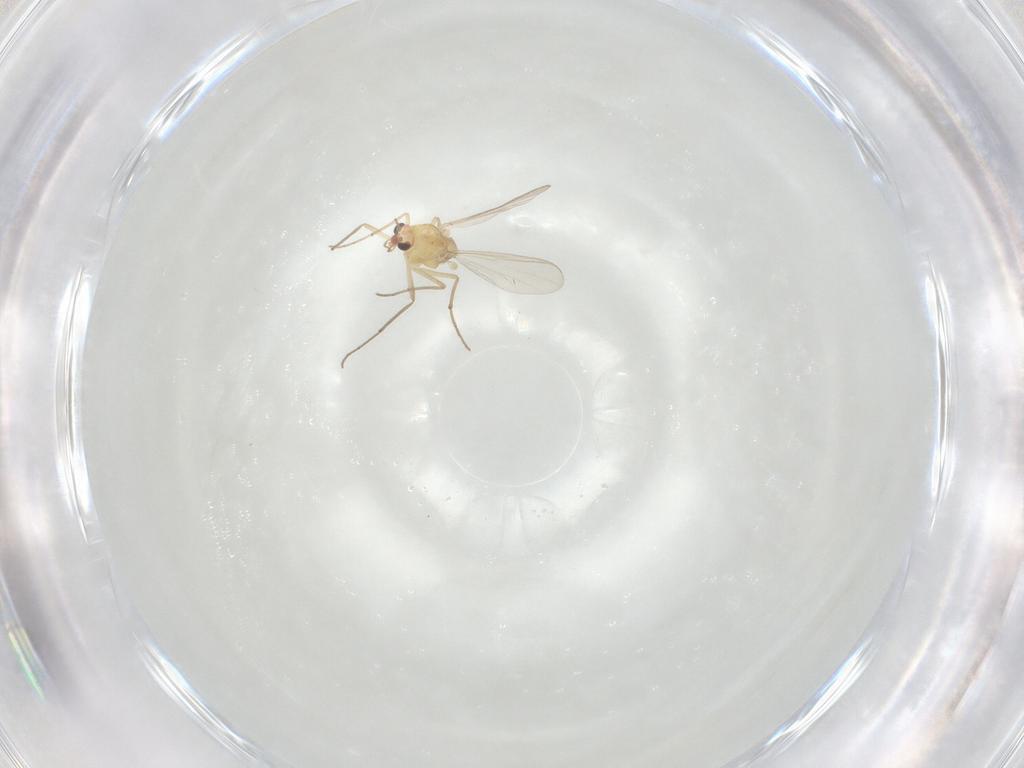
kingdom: Animalia
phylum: Arthropoda
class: Insecta
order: Diptera
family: Chironomidae
